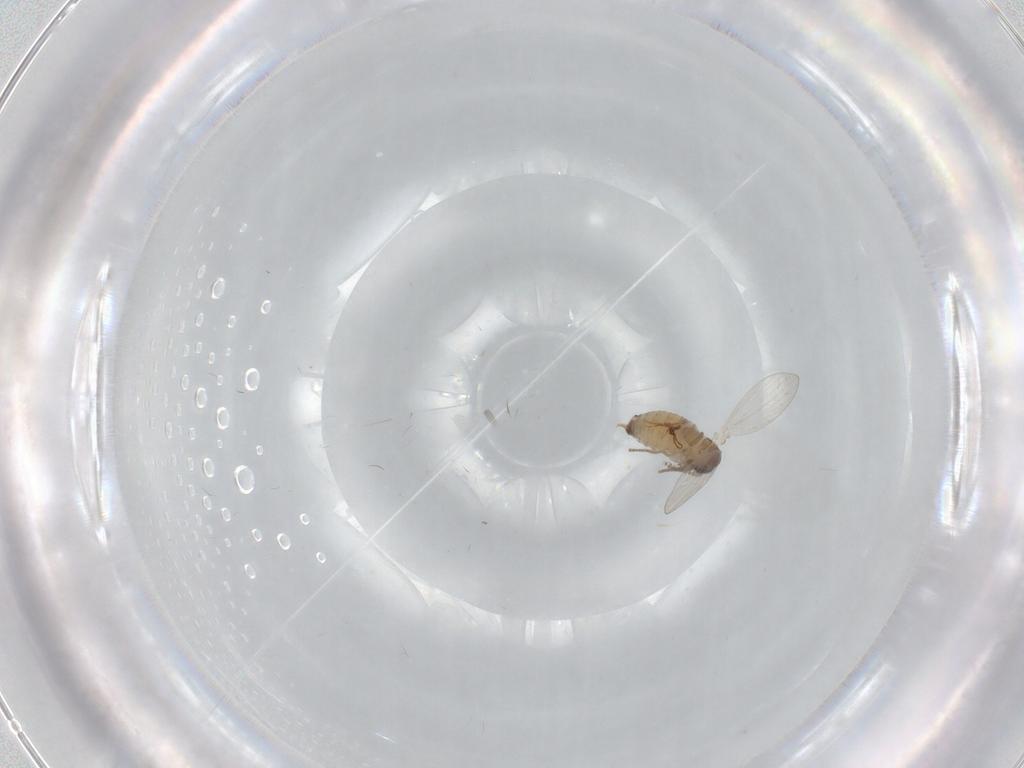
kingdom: Animalia
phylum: Arthropoda
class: Insecta
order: Diptera
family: Psychodidae
